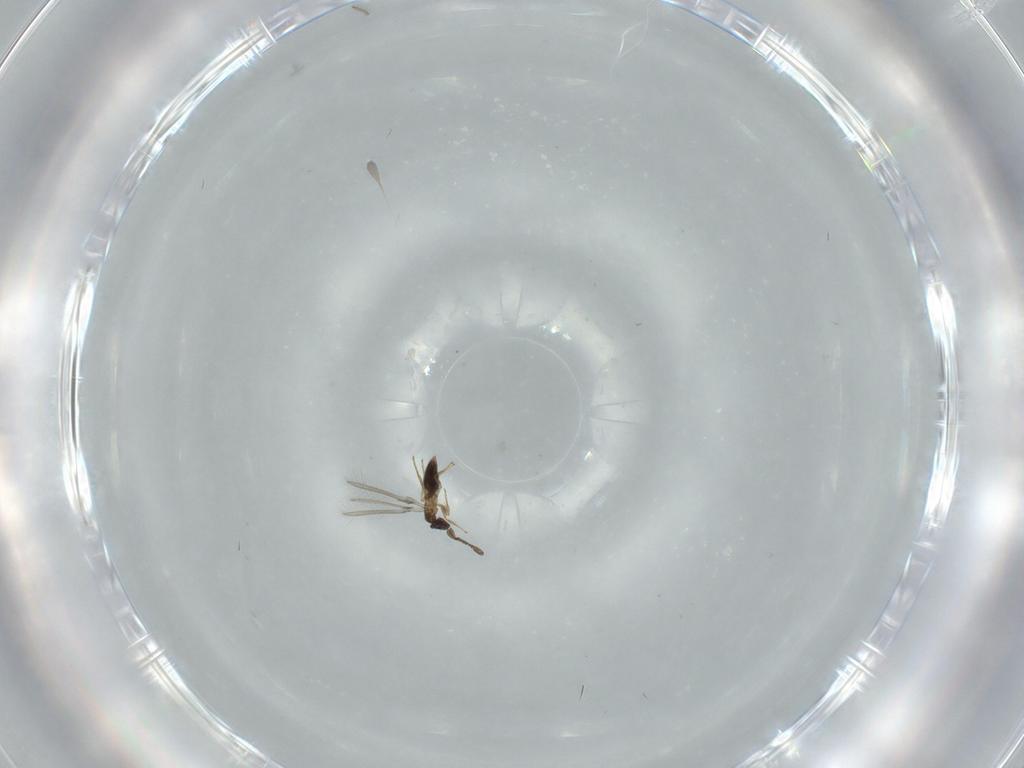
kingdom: Animalia
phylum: Arthropoda
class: Insecta
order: Hymenoptera
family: Mymaridae
